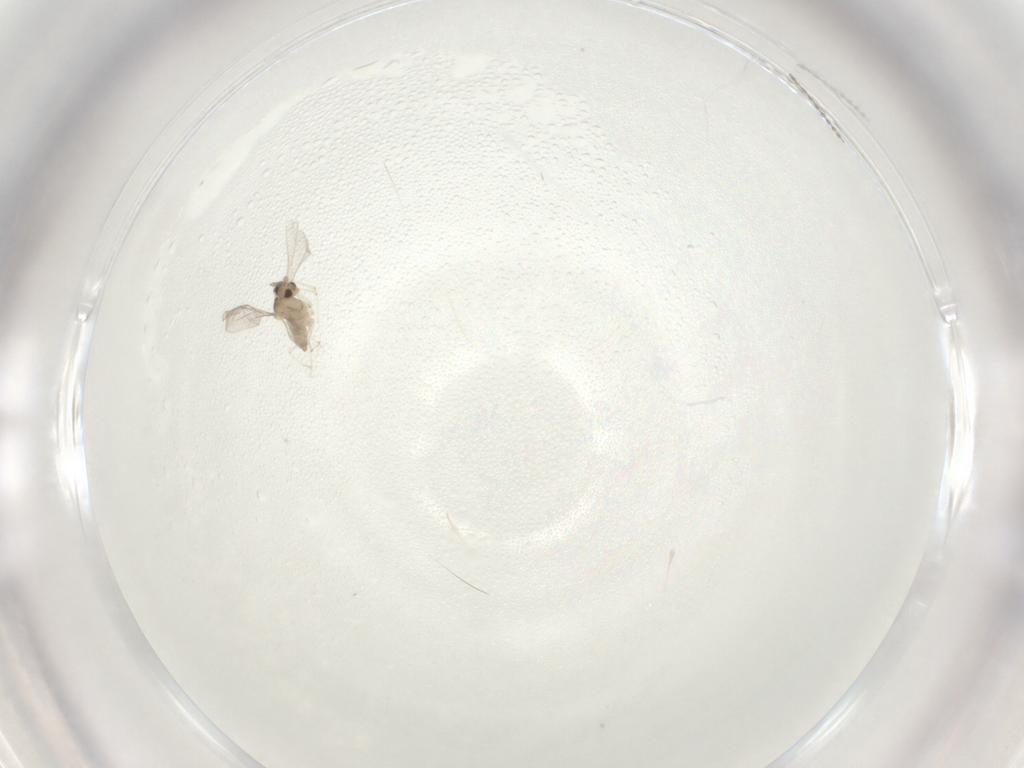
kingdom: Animalia
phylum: Arthropoda
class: Insecta
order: Diptera
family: Cecidomyiidae
